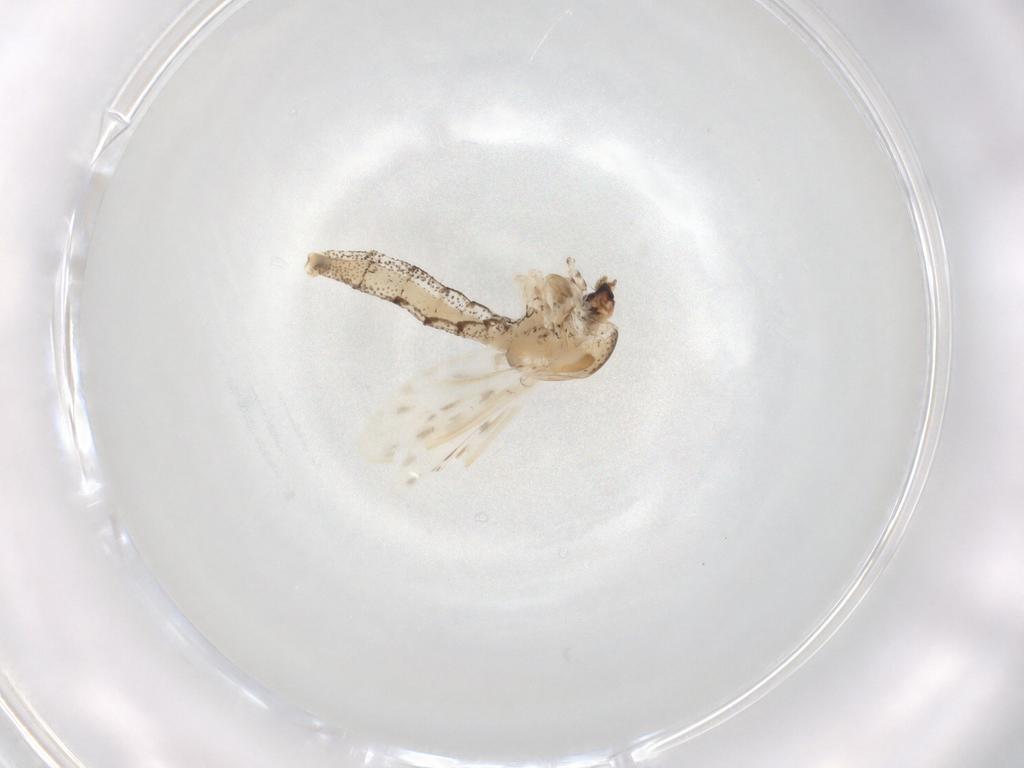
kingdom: Animalia
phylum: Arthropoda
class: Insecta
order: Diptera
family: Chaoboridae
